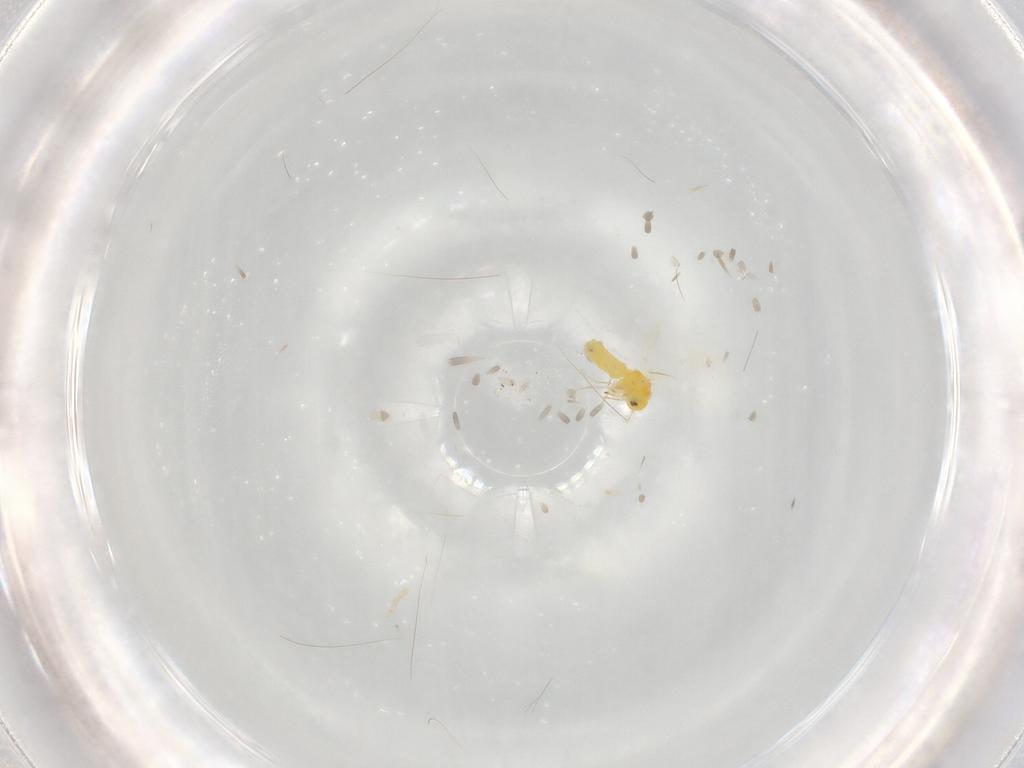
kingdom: Animalia
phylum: Arthropoda
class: Insecta
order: Hemiptera
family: Aleyrodidae
